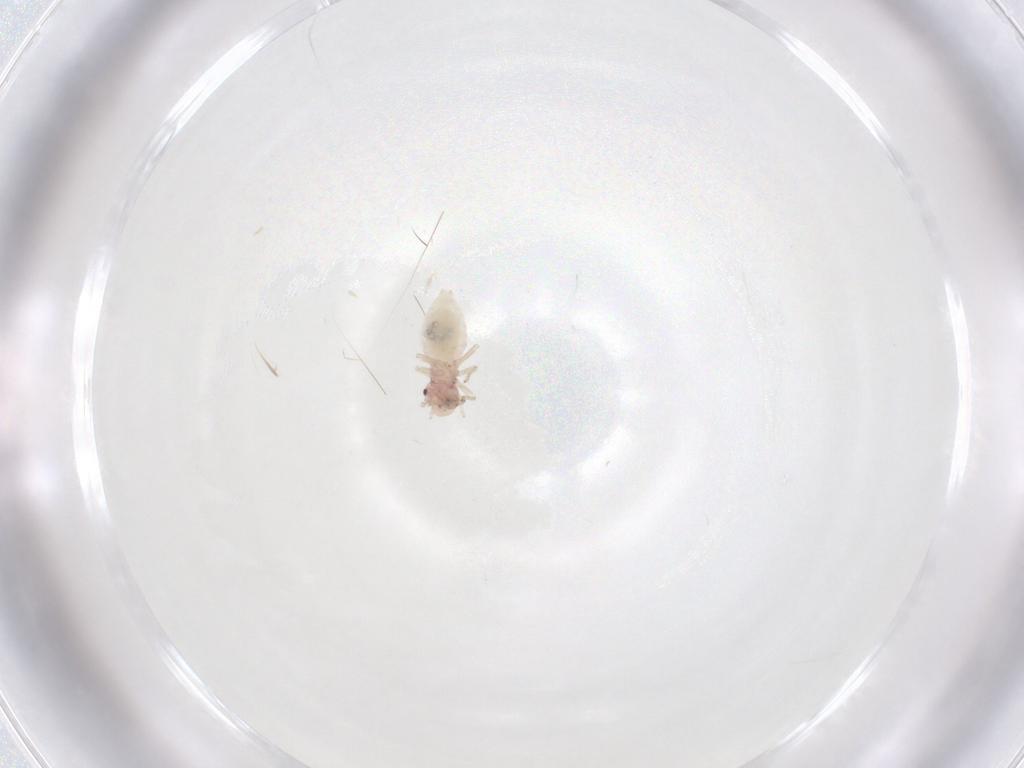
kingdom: Animalia
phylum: Arthropoda
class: Insecta
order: Psocodea
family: Caeciliusidae
